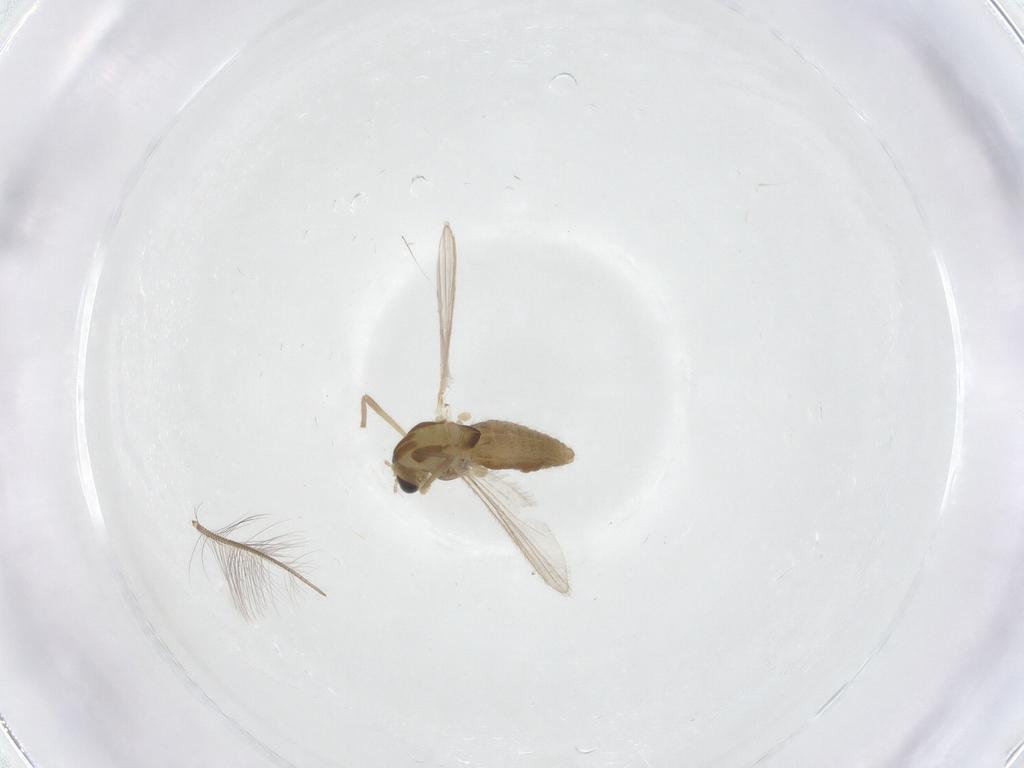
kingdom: Animalia
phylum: Arthropoda
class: Insecta
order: Diptera
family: Chironomidae
